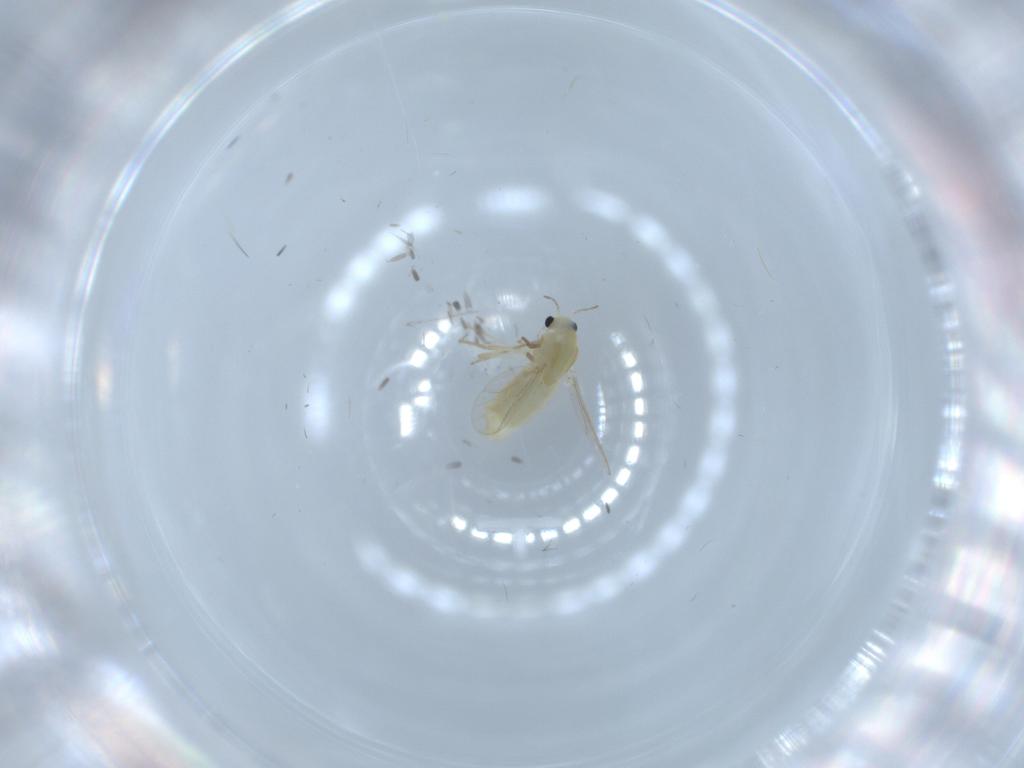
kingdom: Animalia
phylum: Arthropoda
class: Insecta
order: Diptera
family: Chironomidae
